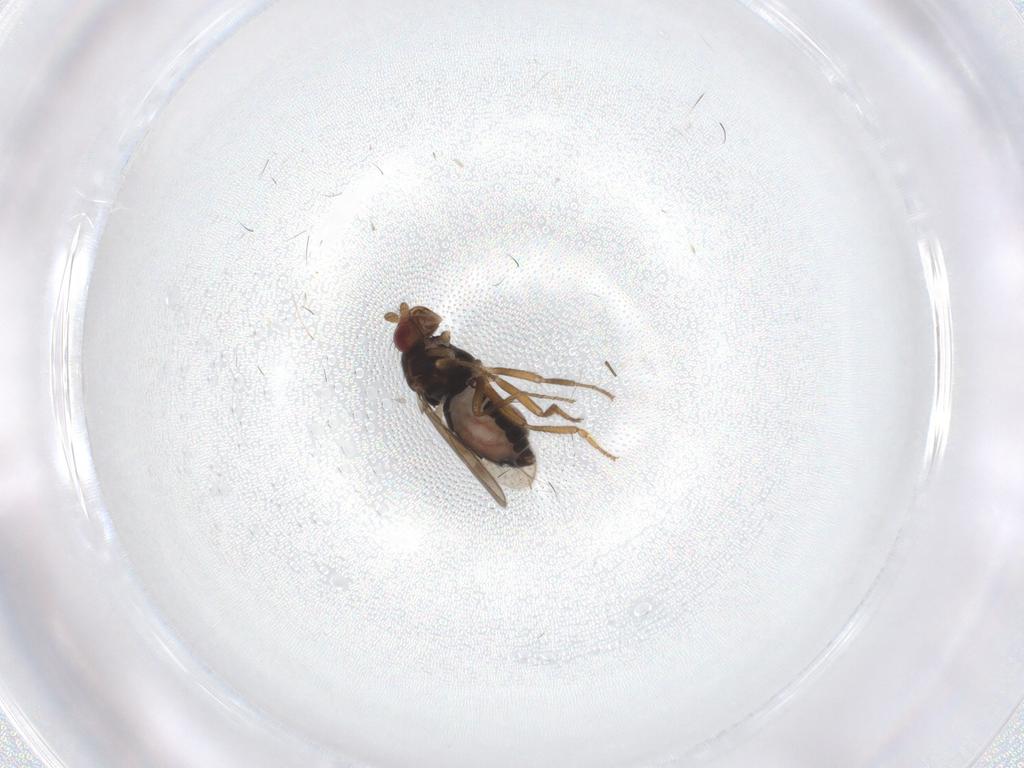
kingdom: Animalia
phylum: Arthropoda
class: Insecta
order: Diptera
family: Sphaeroceridae
